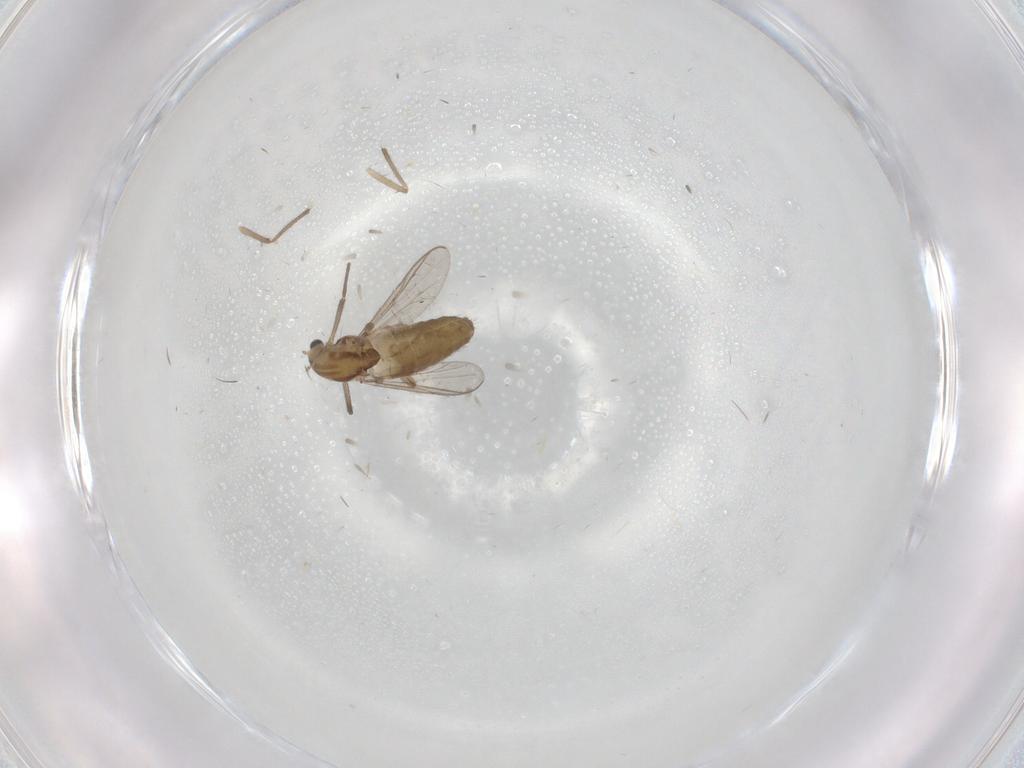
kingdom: Animalia
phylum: Arthropoda
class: Insecta
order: Diptera
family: Chironomidae
